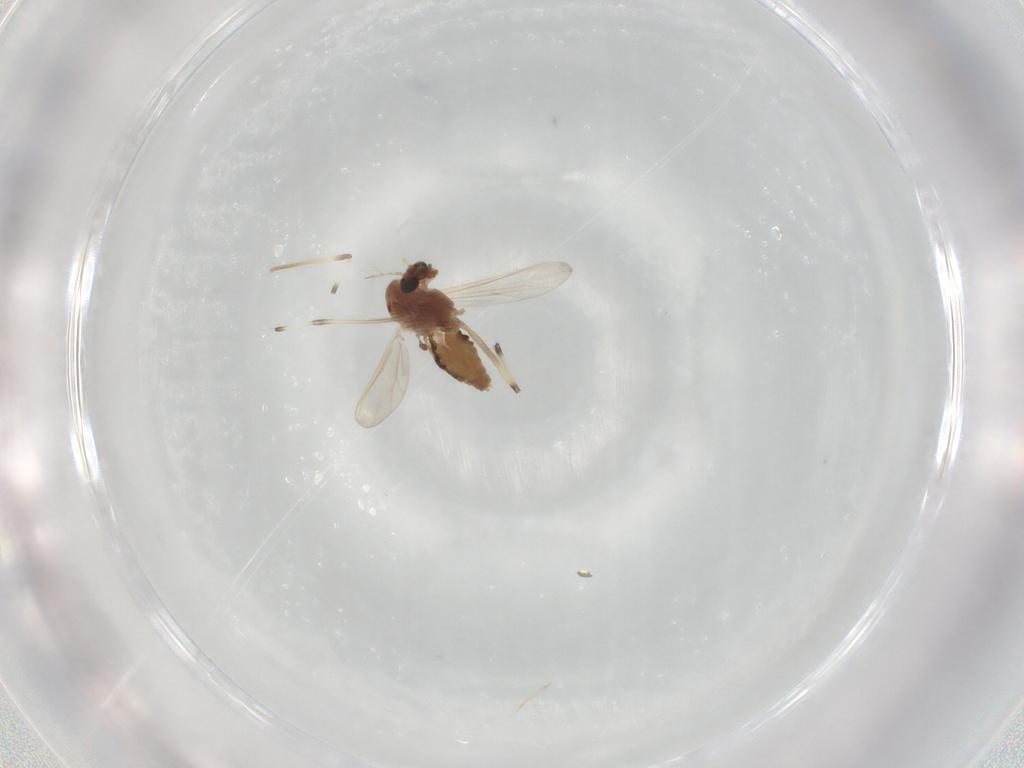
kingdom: Animalia
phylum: Arthropoda
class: Insecta
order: Diptera
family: Chironomidae
